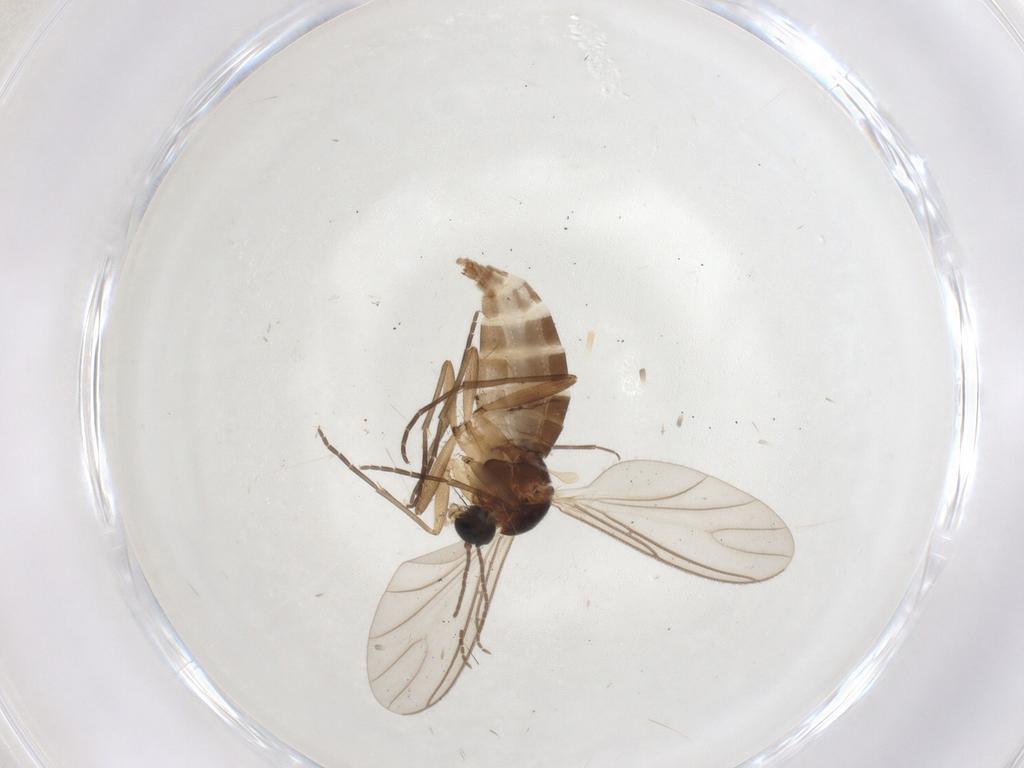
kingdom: Animalia
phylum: Arthropoda
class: Insecta
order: Diptera
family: Sciaridae
